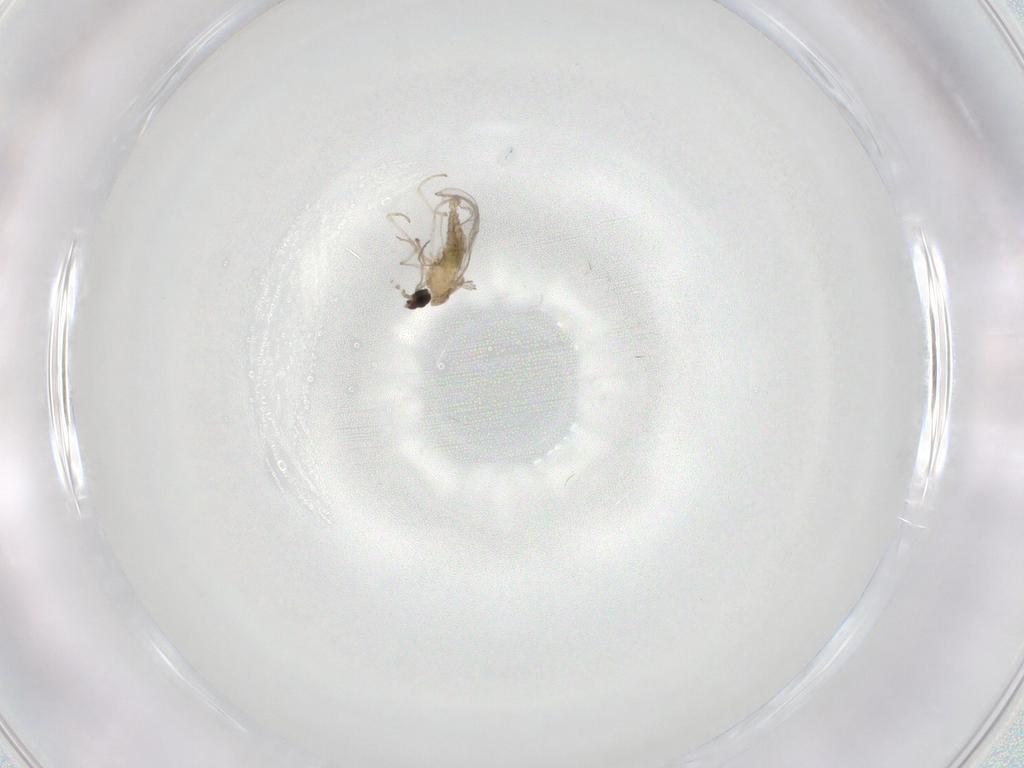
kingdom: Animalia
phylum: Arthropoda
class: Insecta
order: Diptera
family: Cecidomyiidae
